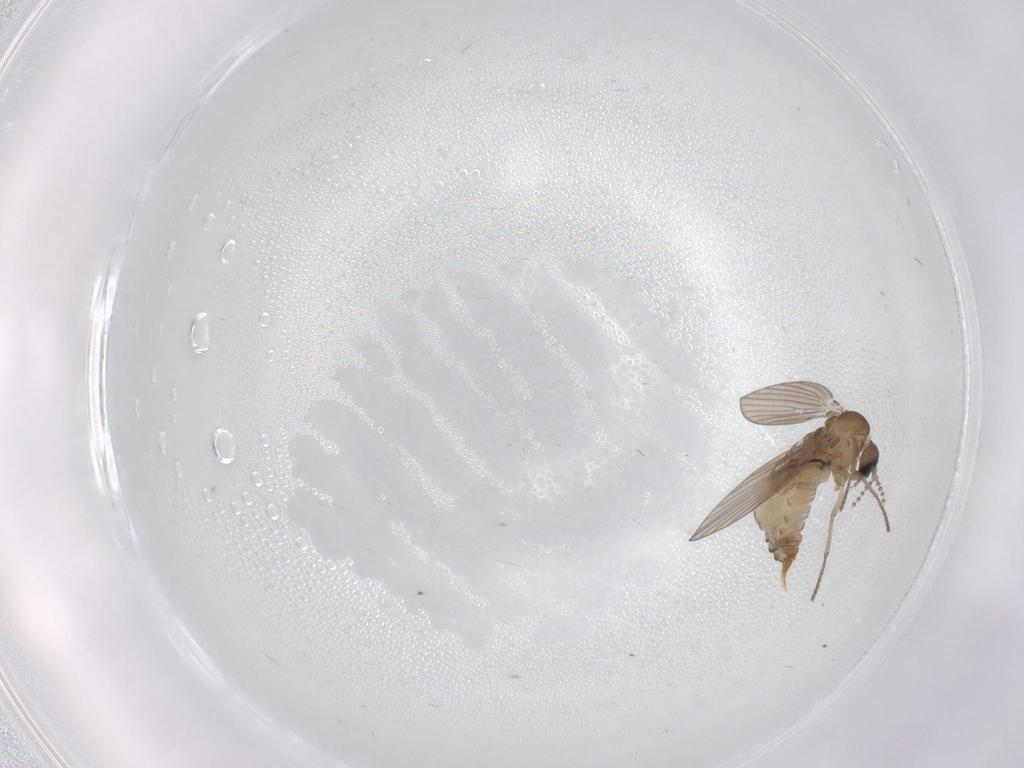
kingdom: Animalia
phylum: Arthropoda
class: Insecta
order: Diptera
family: Psychodidae
